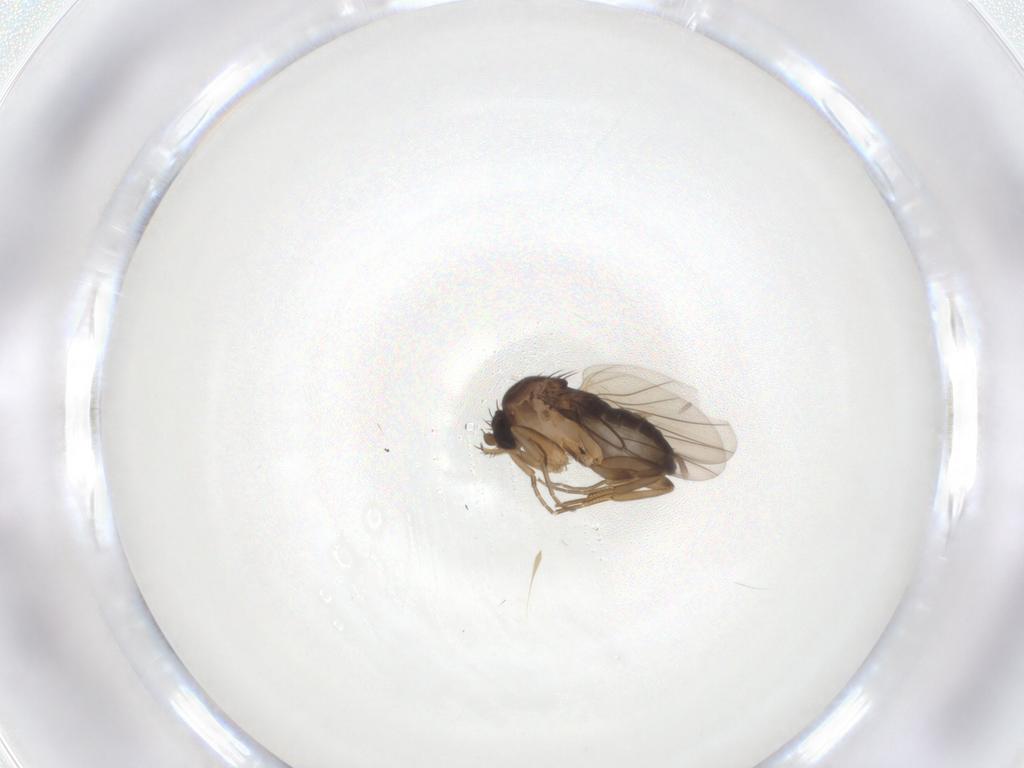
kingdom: Animalia
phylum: Arthropoda
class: Insecta
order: Diptera
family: Phoridae
